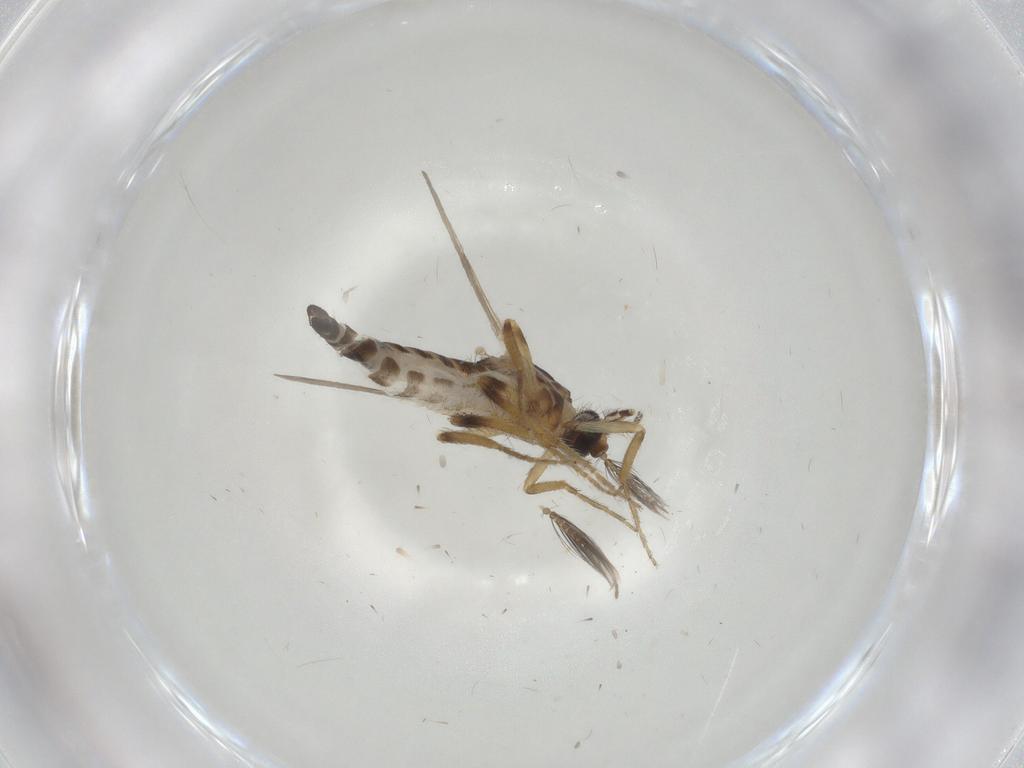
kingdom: Animalia
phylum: Arthropoda
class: Insecta
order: Diptera
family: Ceratopogonidae
